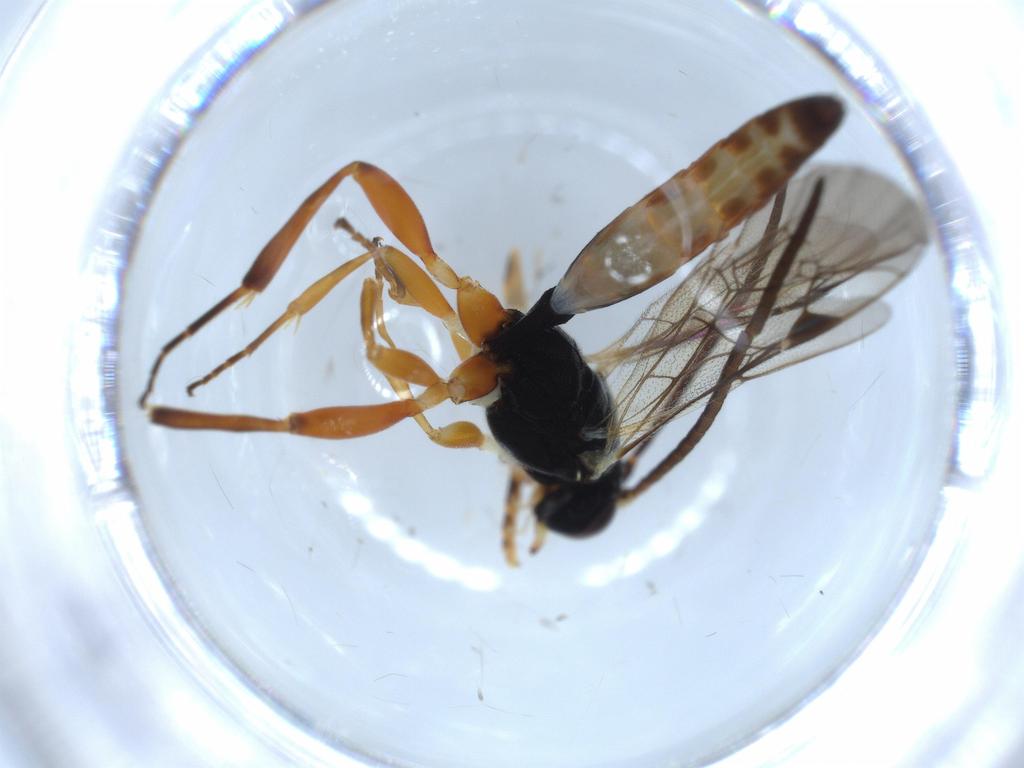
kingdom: Animalia
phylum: Arthropoda
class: Insecta
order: Hymenoptera
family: Ichneumonidae
